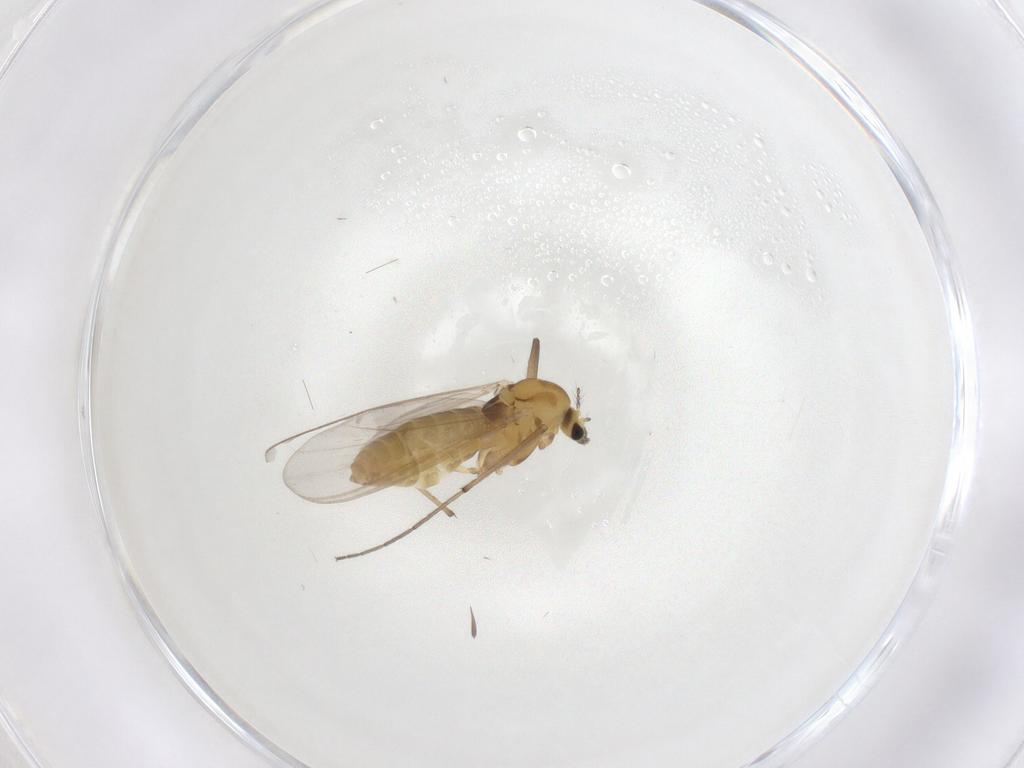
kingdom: Animalia
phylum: Arthropoda
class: Insecta
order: Diptera
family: Chironomidae
